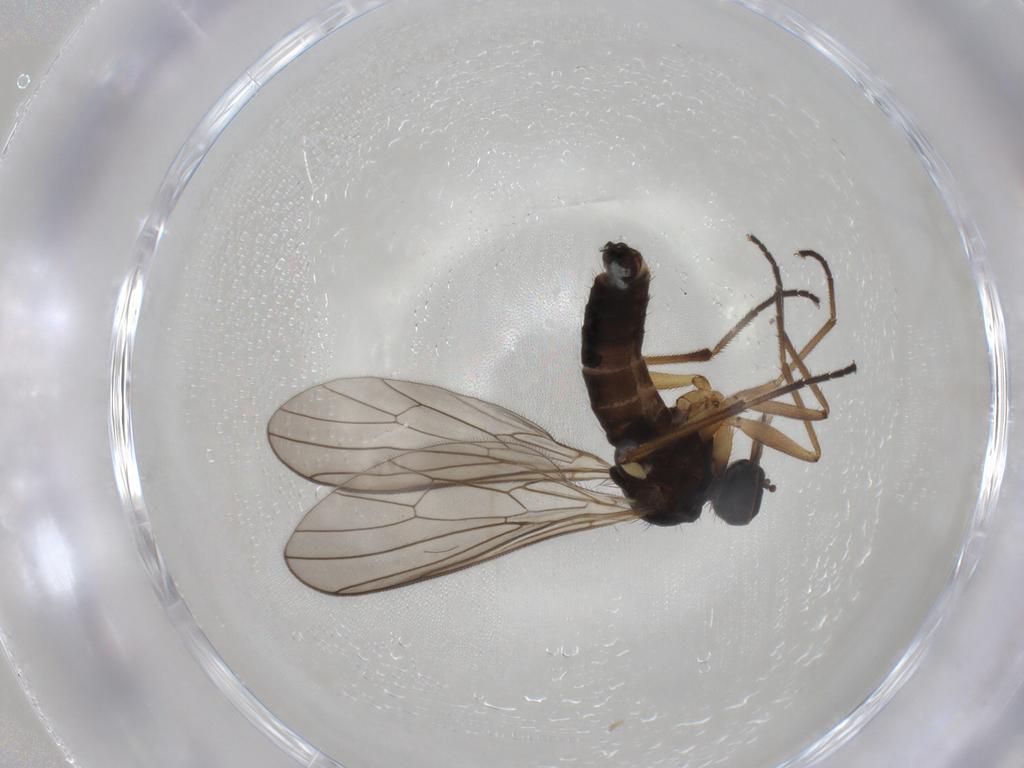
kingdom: Animalia
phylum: Arthropoda
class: Insecta
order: Diptera
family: Empididae
